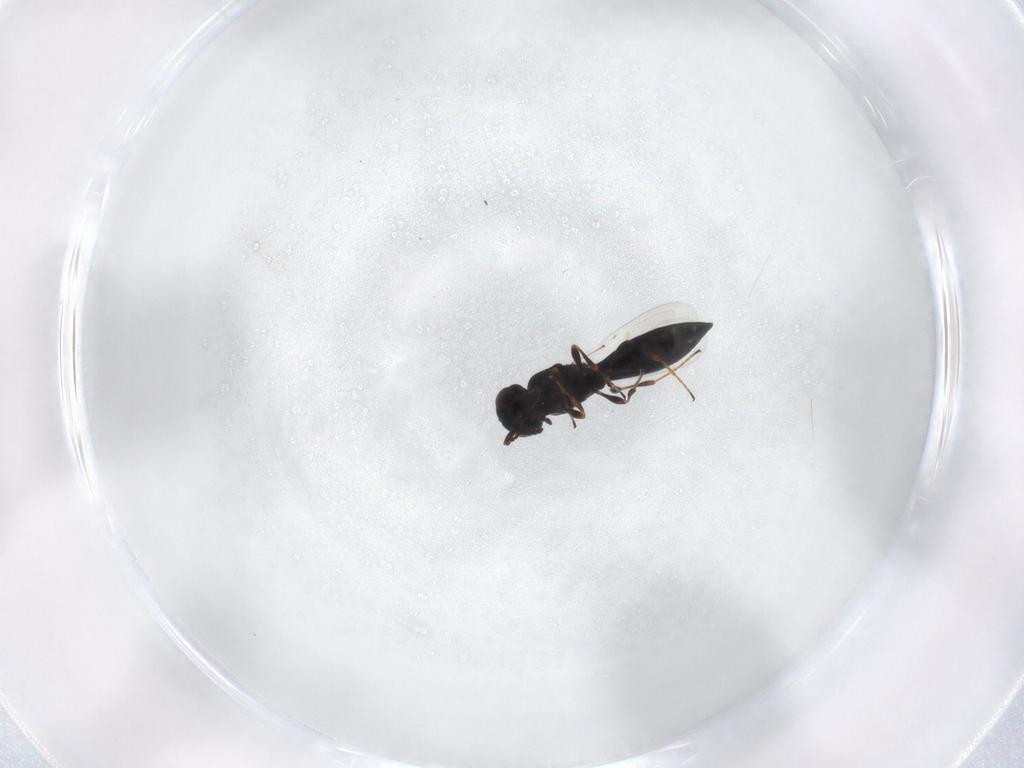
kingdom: Animalia
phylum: Arthropoda
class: Insecta
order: Hymenoptera
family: Platygastridae
